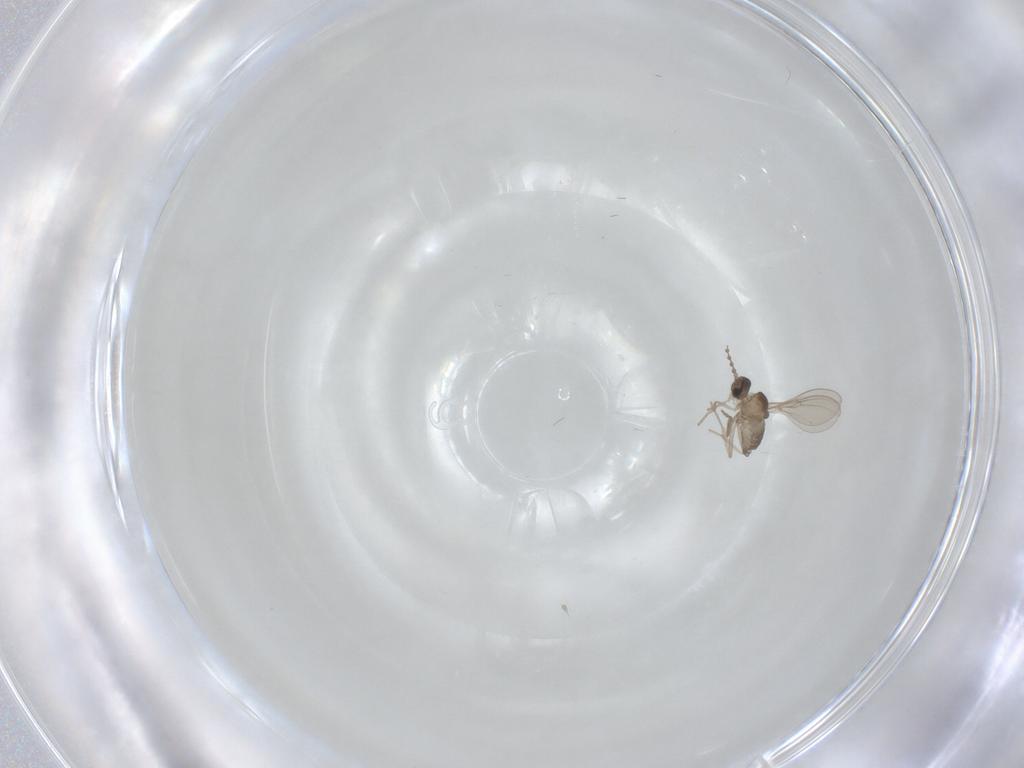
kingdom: Animalia
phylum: Arthropoda
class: Insecta
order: Diptera
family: Cecidomyiidae
